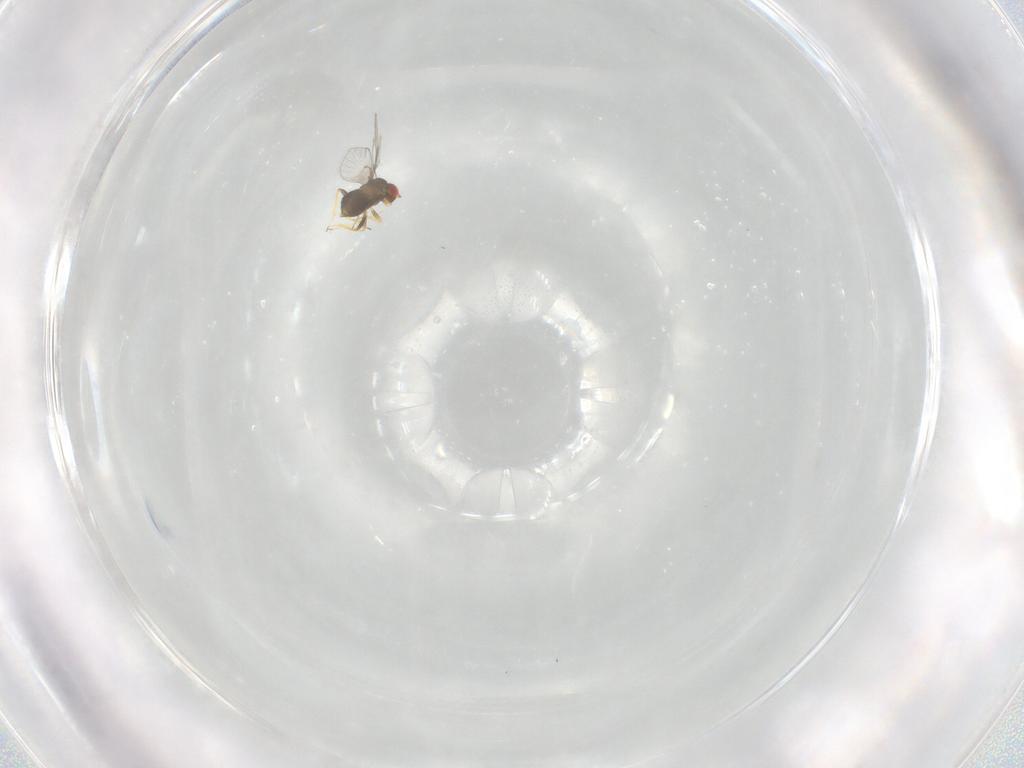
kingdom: Animalia
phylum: Arthropoda
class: Insecta
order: Hymenoptera
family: Trichogrammatidae
